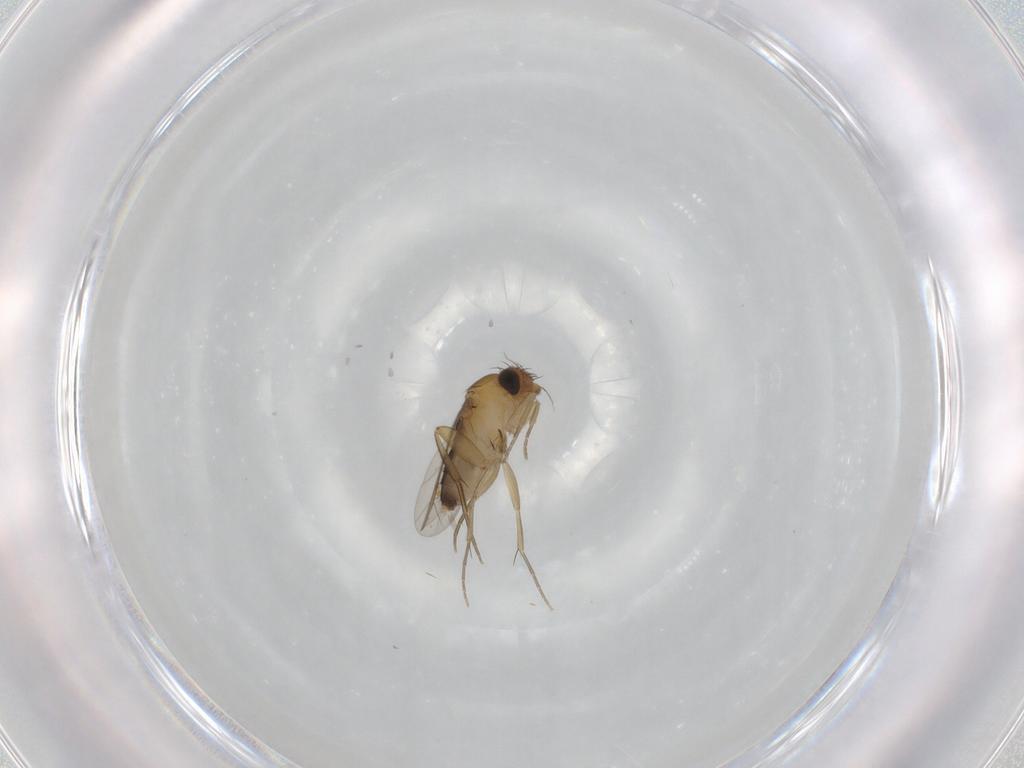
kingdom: Animalia
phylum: Arthropoda
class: Insecta
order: Diptera
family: Phoridae
